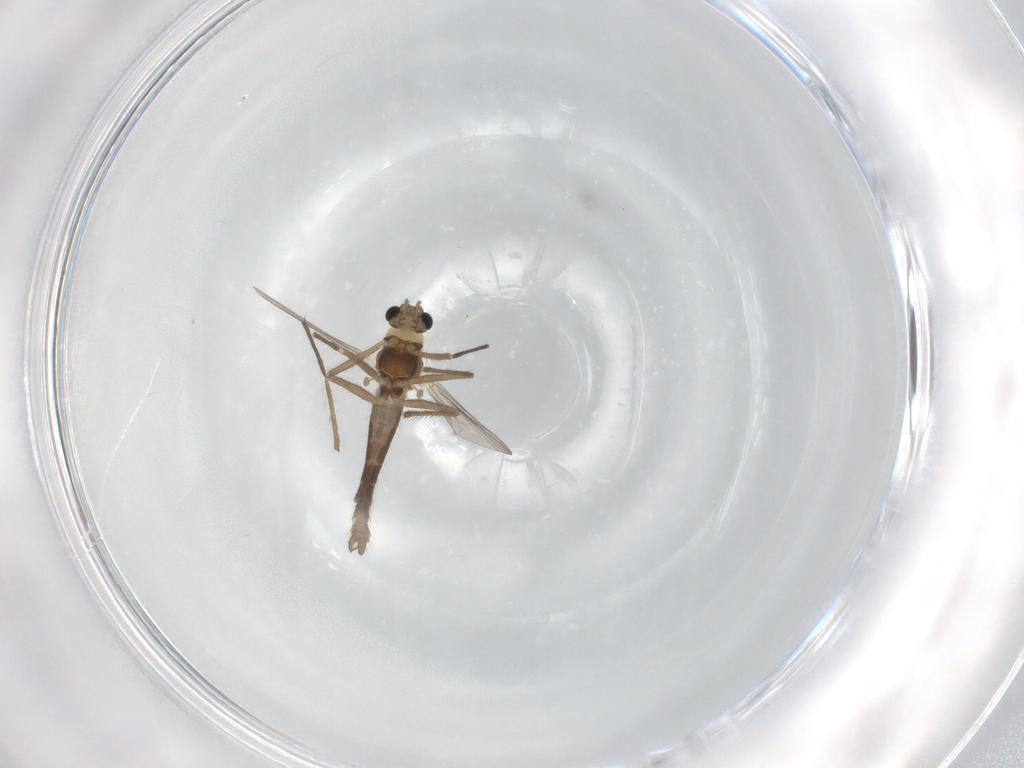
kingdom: Animalia
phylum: Arthropoda
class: Insecta
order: Diptera
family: Chironomidae
